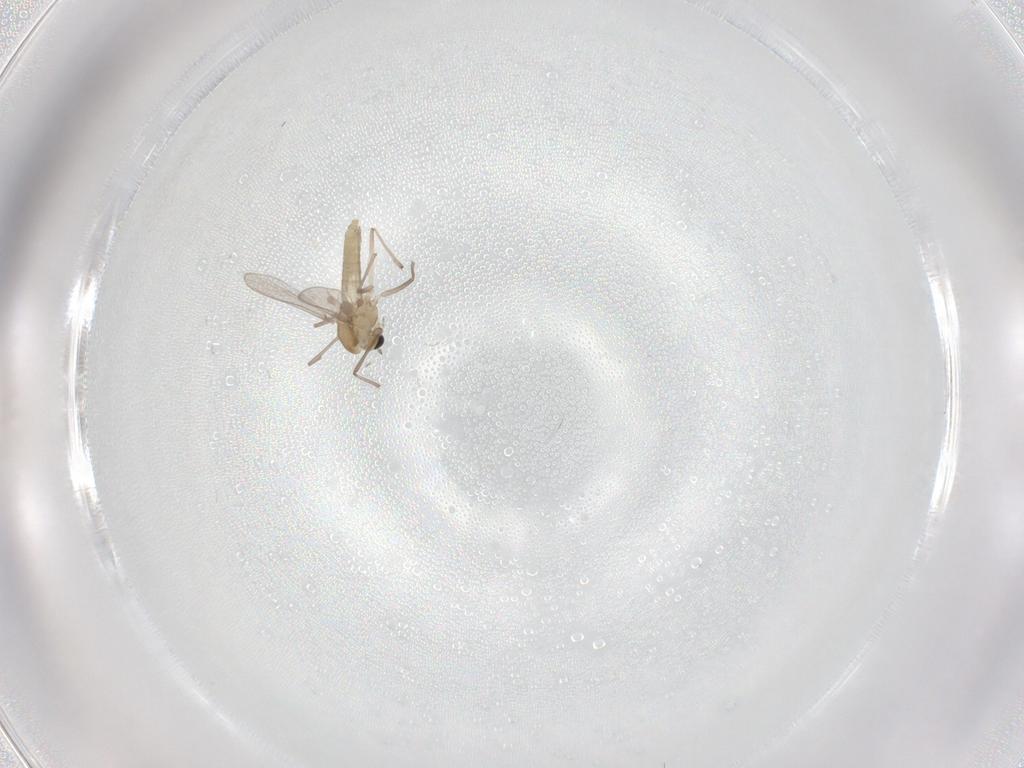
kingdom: Animalia
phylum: Arthropoda
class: Insecta
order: Diptera
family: Chironomidae
